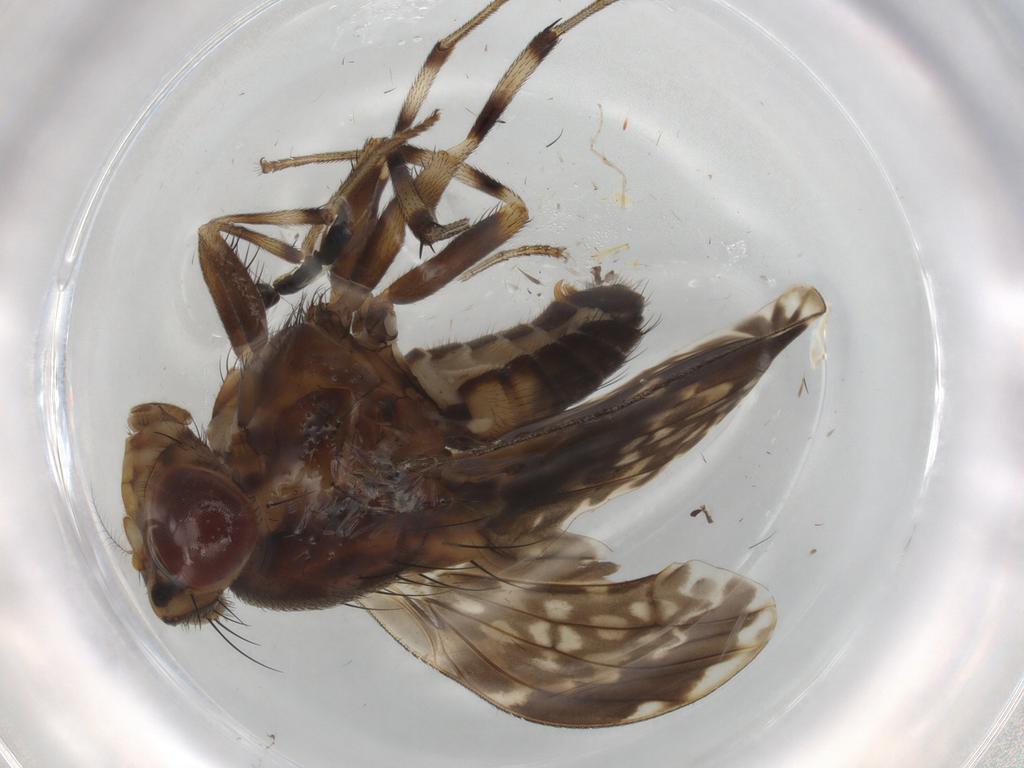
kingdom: Animalia
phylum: Arthropoda
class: Insecta
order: Diptera
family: Cecidomyiidae
